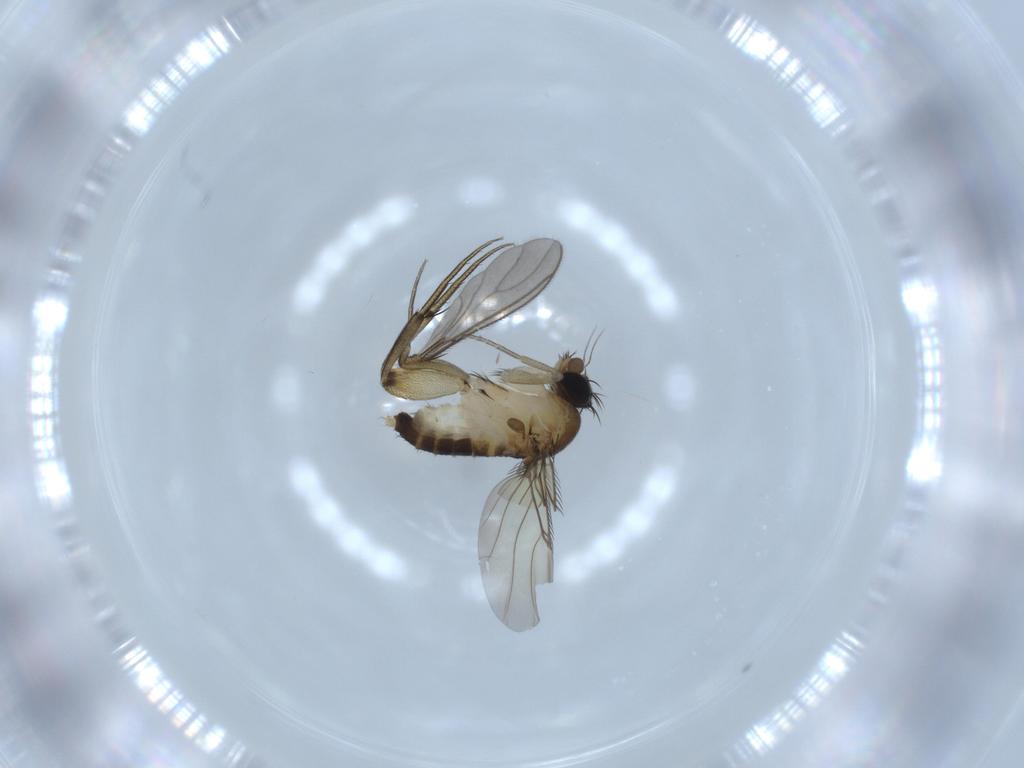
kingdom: Animalia
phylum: Arthropoda
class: Insecta
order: Diptera
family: Phoridae
